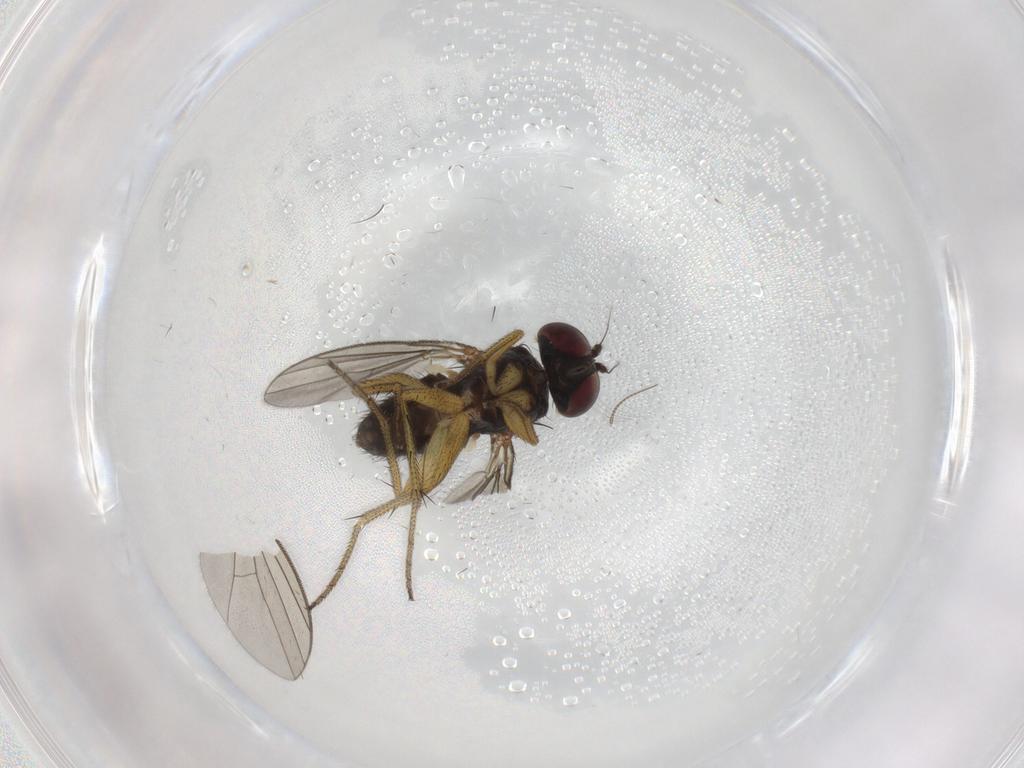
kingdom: Animalia
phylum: Arthropoda
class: Insecta
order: Diptera
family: Chironomidae
